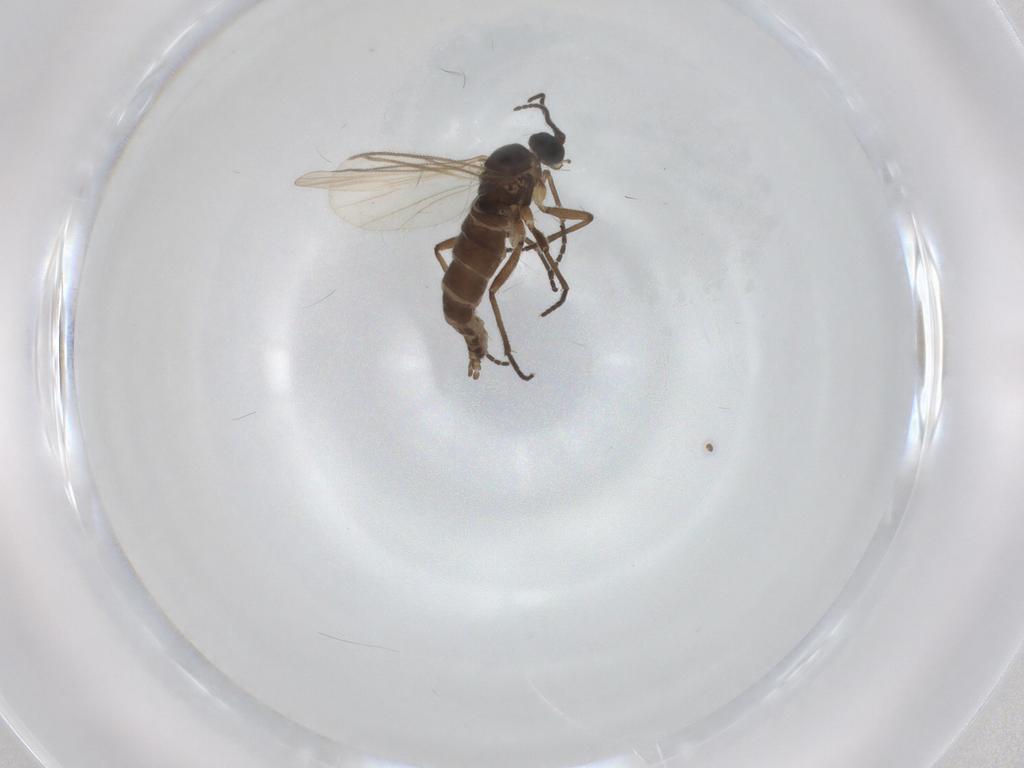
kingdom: Animalia
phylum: Arthropoda
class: Insecta
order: Diptera
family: Sciaridae
